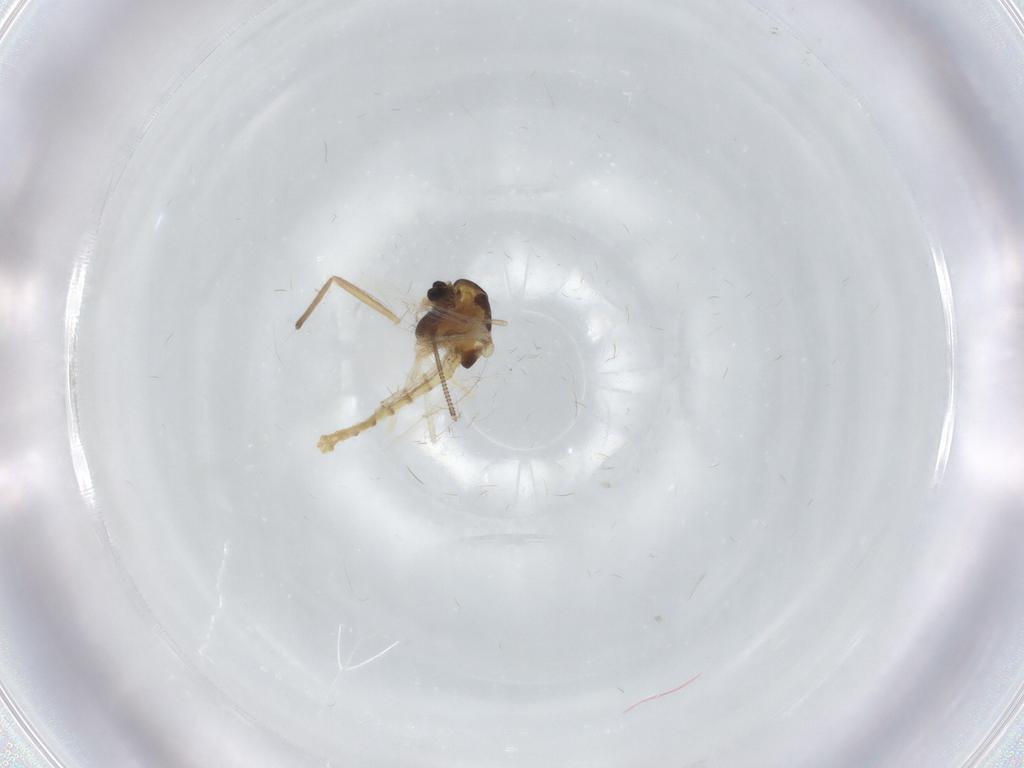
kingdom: Animalia
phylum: Arthropoda
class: Insecta
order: Diptera
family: Chironomidae
